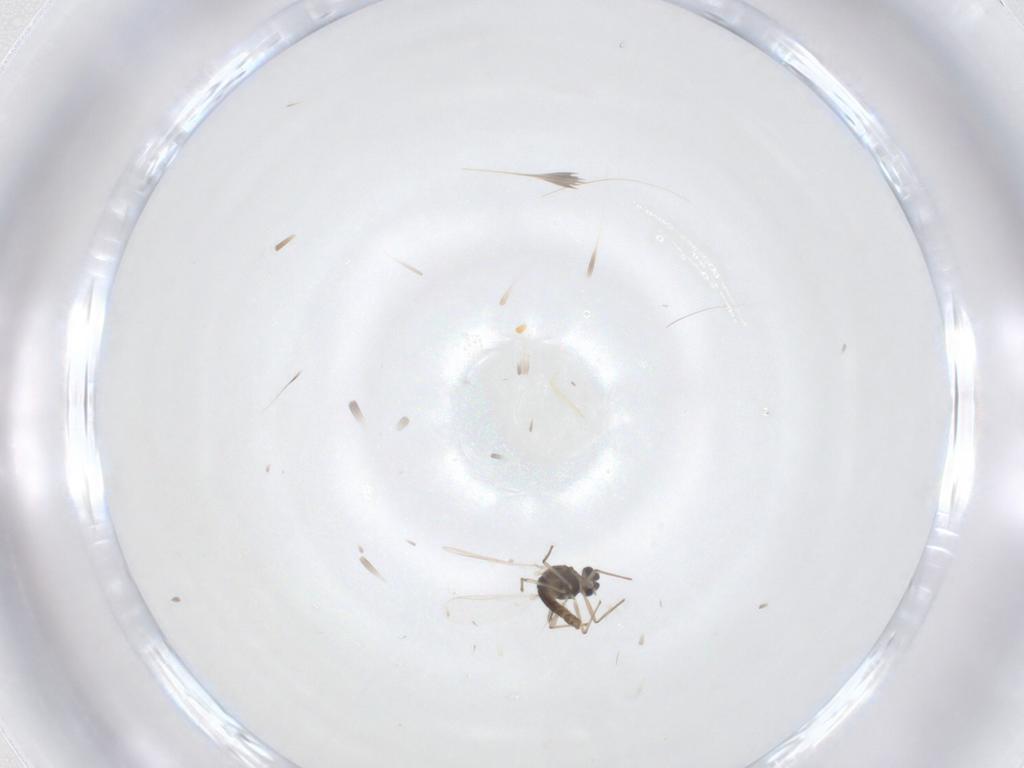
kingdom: Animalia
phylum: Arthropoda
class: Insecta
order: Diptera
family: Chironomidae
